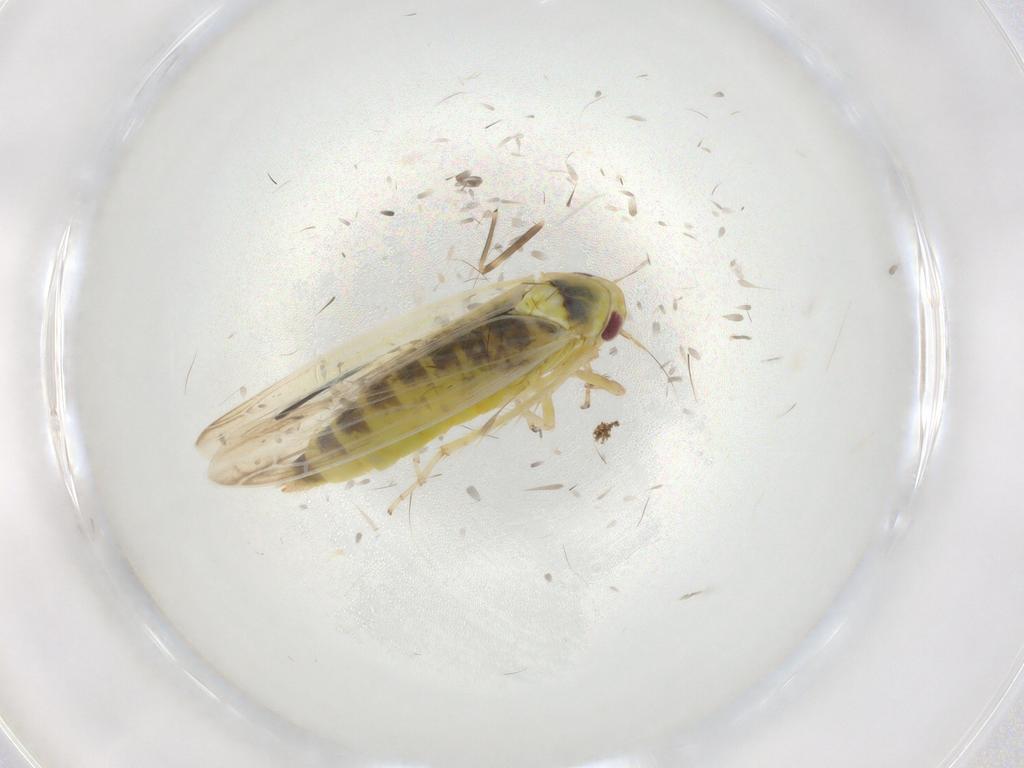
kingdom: Animalia
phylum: Arthropoda
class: Insecta
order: Hemiptera
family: Cicadellidae
